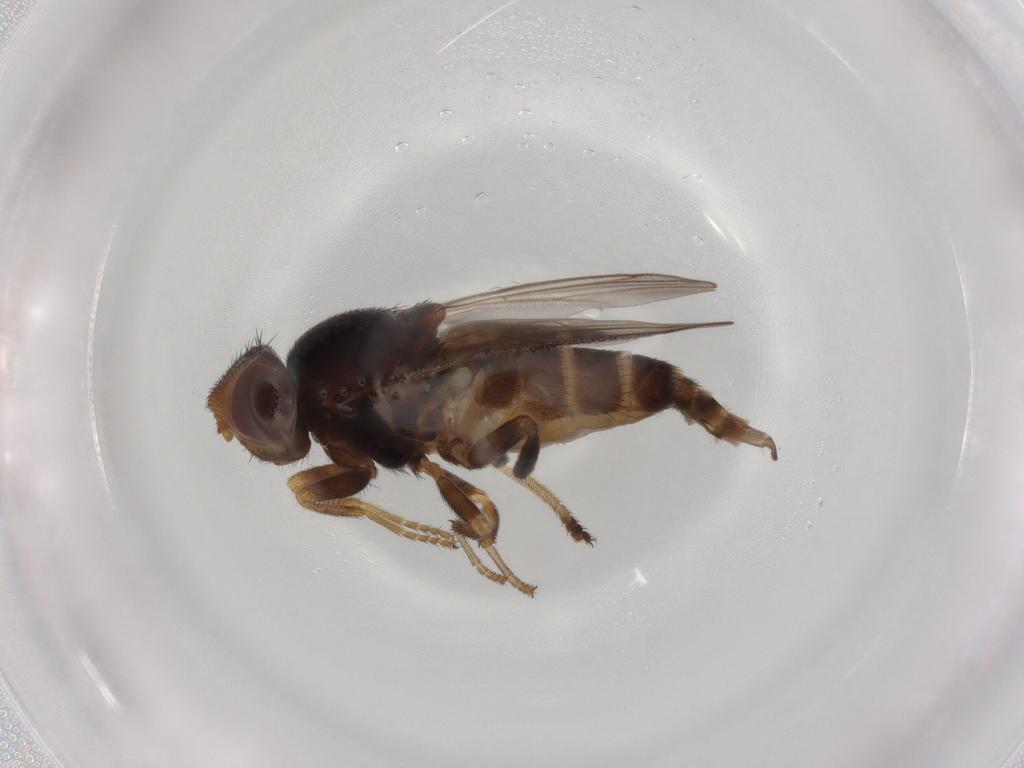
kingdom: Animalia
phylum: Arthropoda
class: Insecta
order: Diptera
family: Chloropidae
